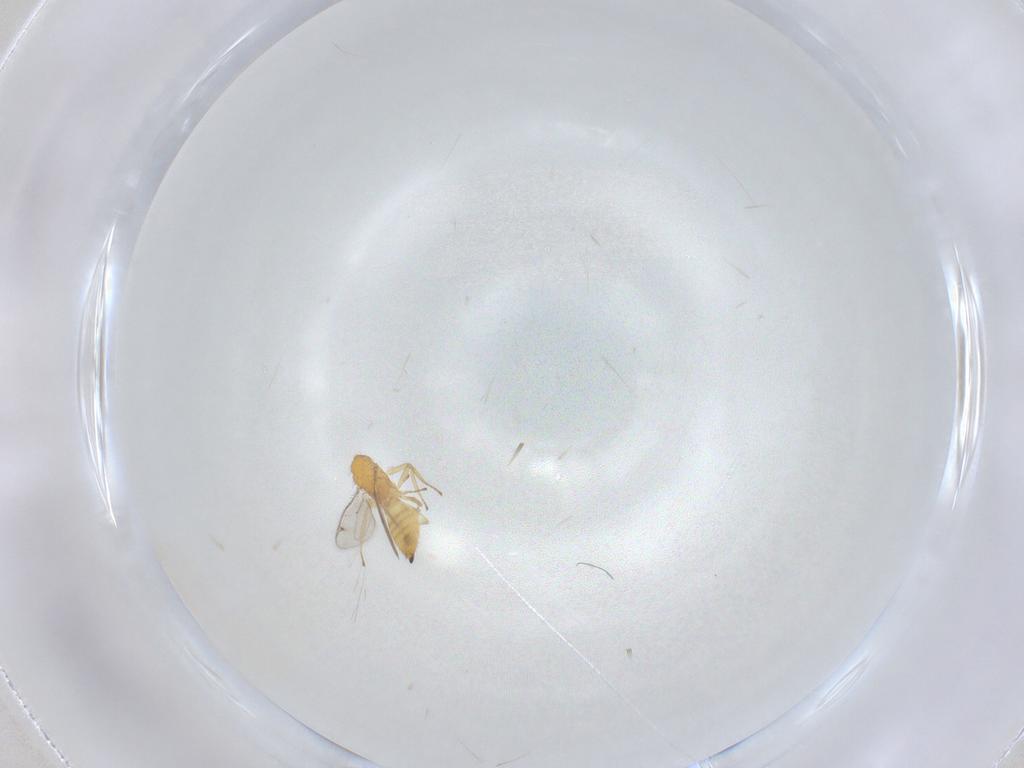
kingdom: Animalia
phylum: Arthropoda
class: Insecta
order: Hymenoptera
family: Eulophidae
